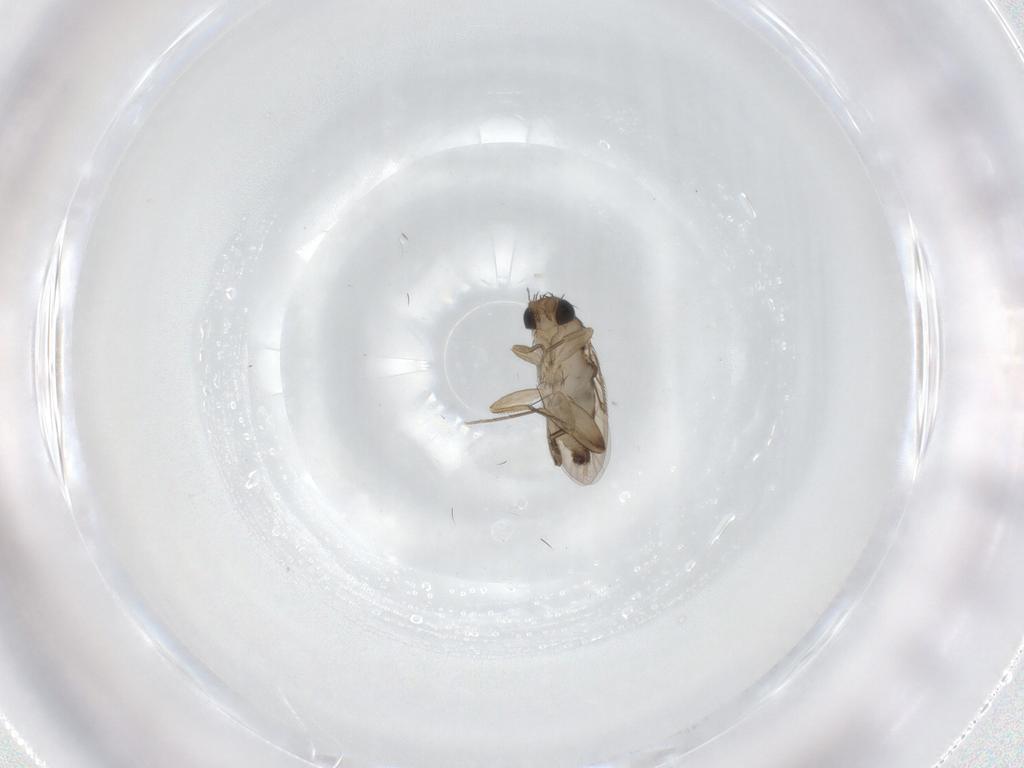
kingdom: Animalia
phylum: Arthropoda
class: Insecta
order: Diptera
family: Phoridae
